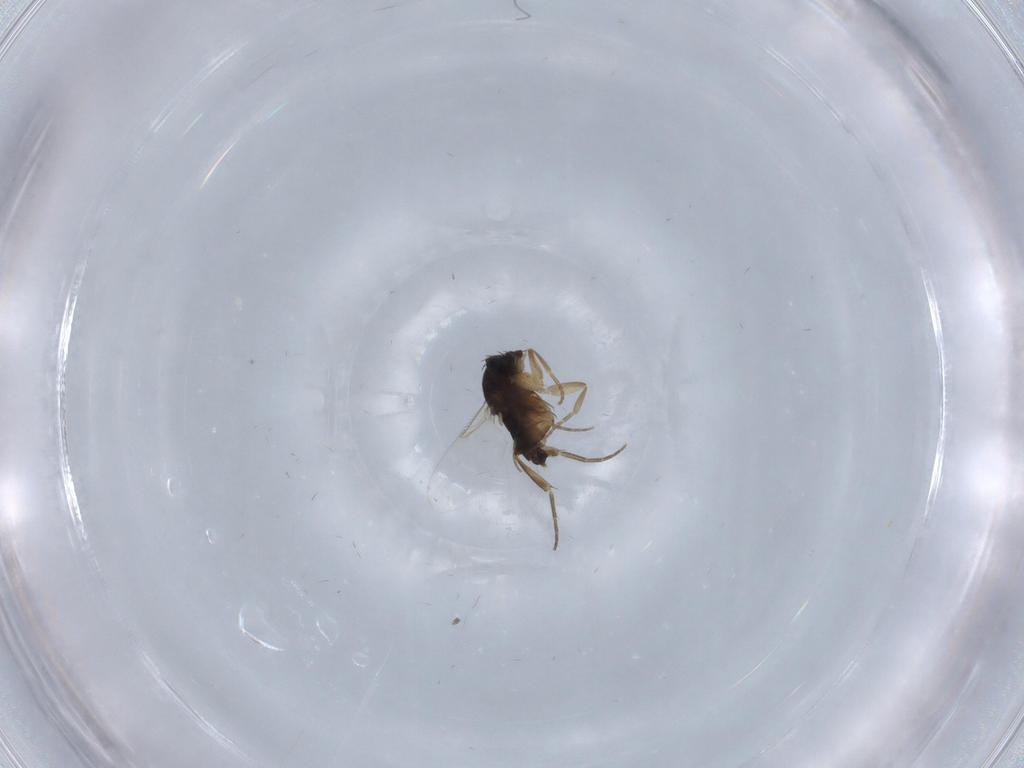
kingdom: Animalia
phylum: Arthropoda
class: Insecta
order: Diptera
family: Phoridae
